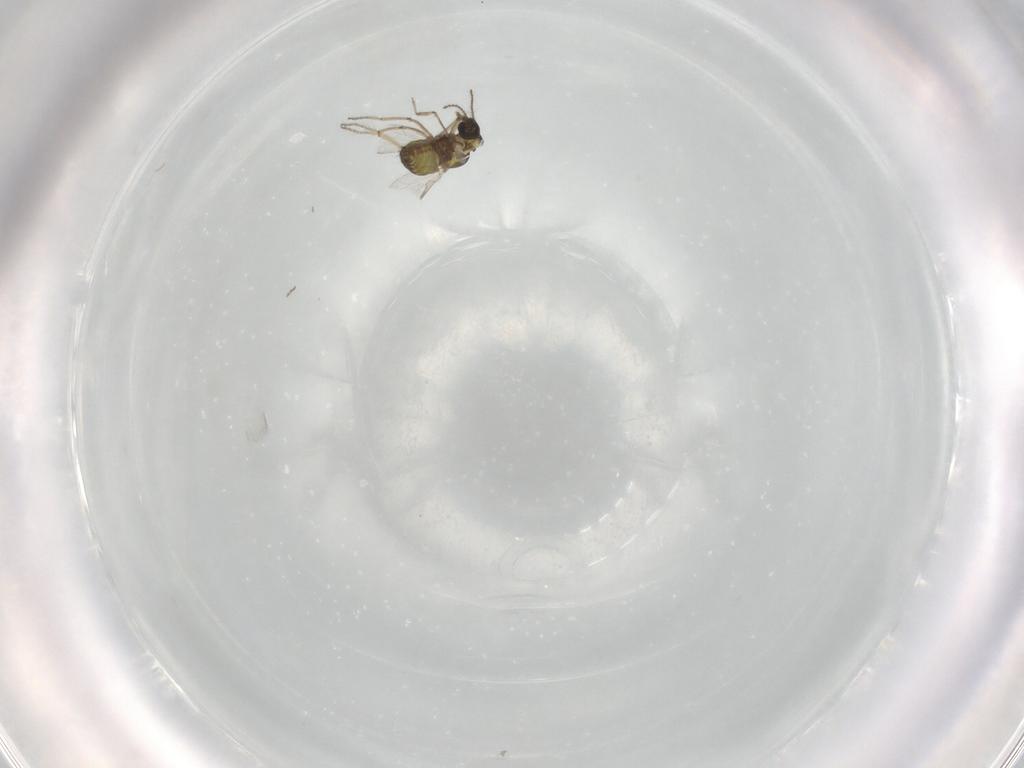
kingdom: Animalia
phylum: Arthropoda
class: Insecta
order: Diptera
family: Ceratopogonidae
